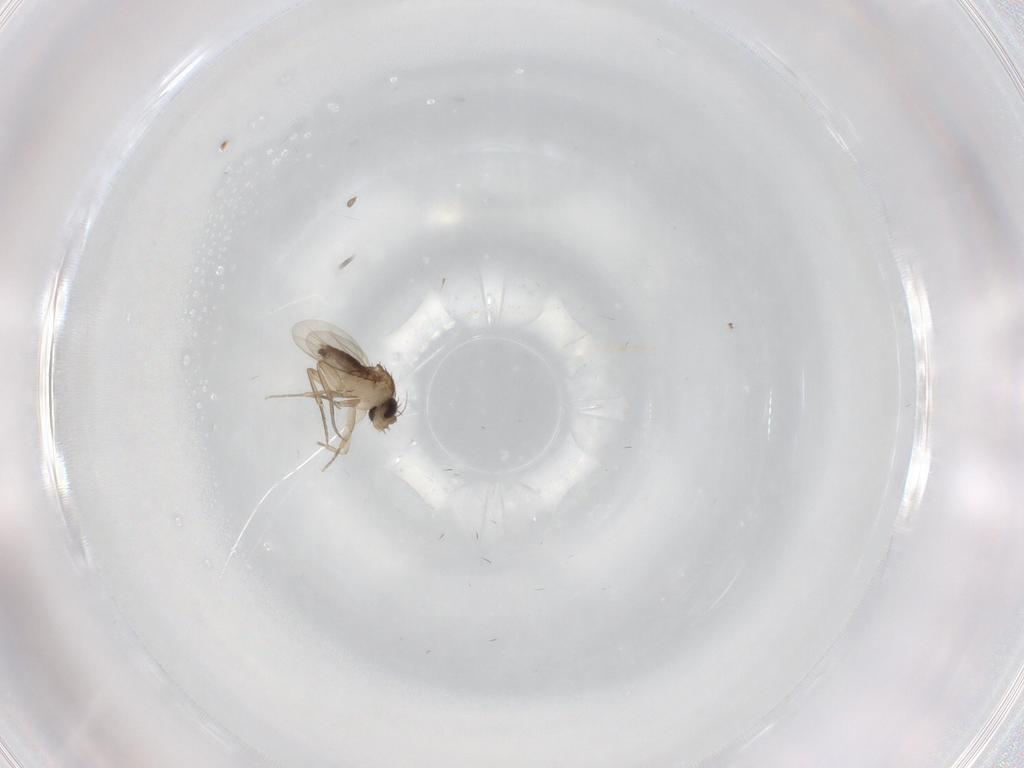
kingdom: Animalia
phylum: Arthropoda
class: Insecta
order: Diptera
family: Phoridae
